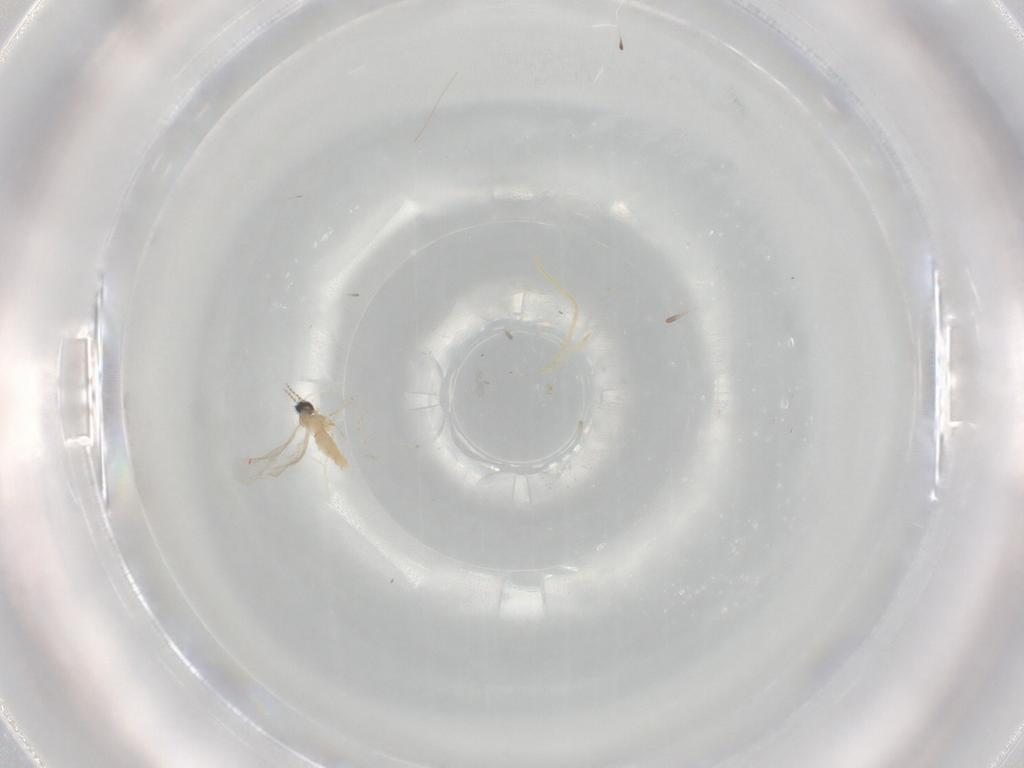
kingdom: Animalia
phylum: Arthropoda
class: Insecta
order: Diptera
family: Cecidomyiidae
